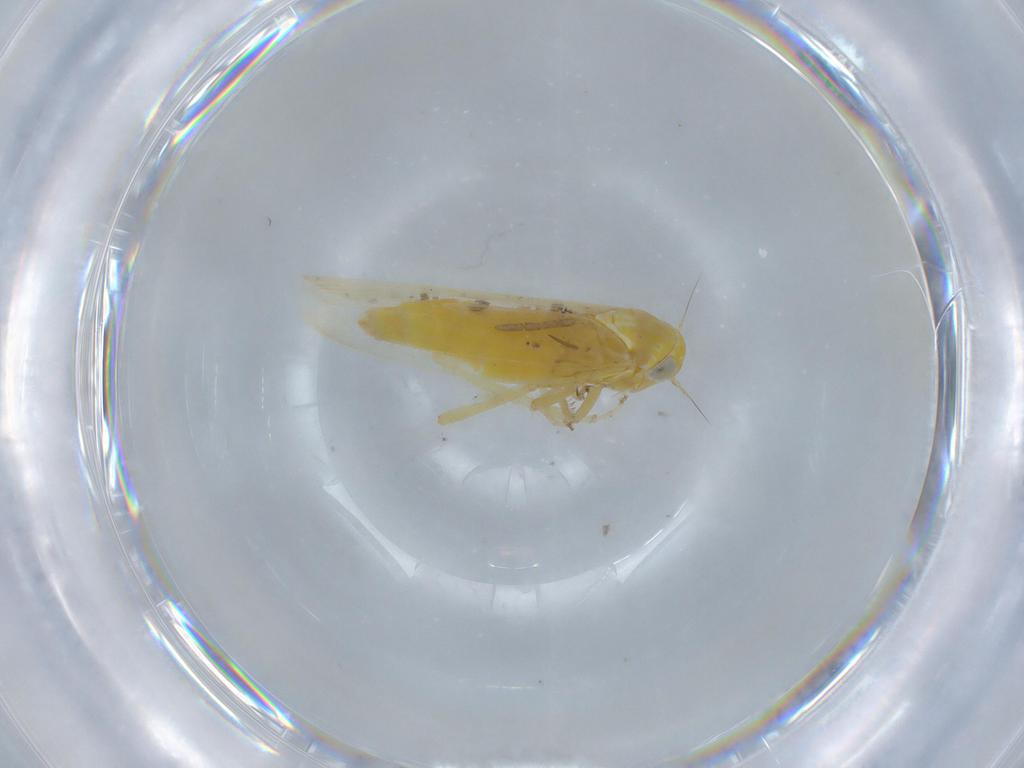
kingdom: Animalia
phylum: Arthropoda
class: Insecta
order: Hemiptera
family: Cicadellidae
